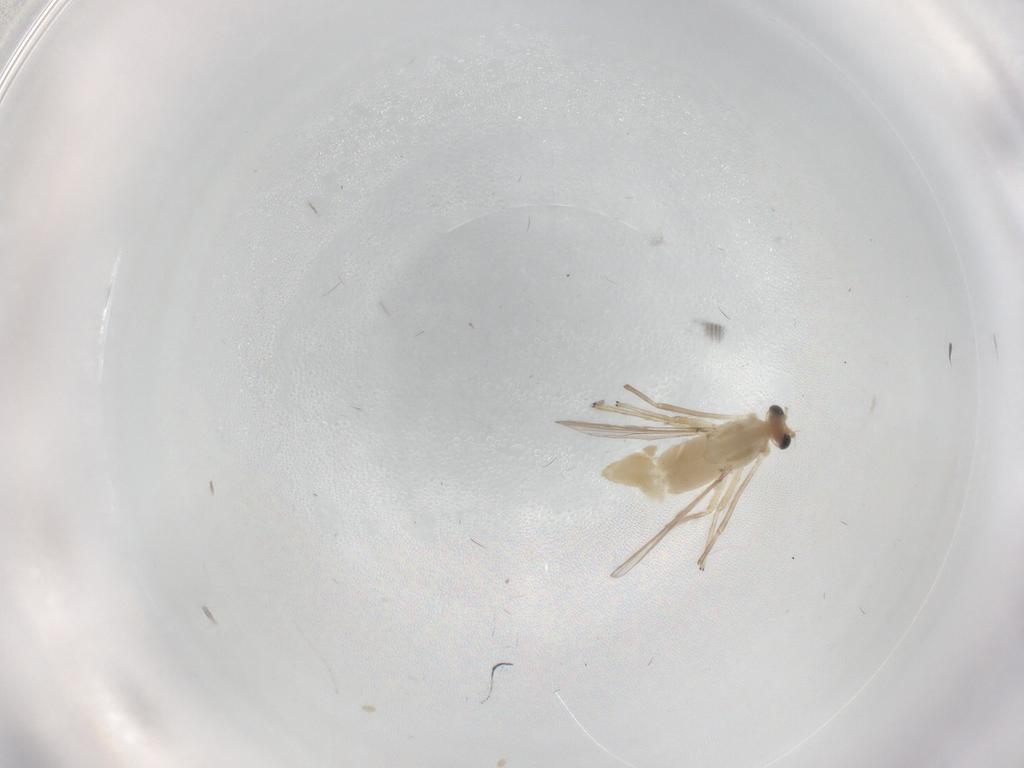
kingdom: Animalia
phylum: Arthropoda
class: Insecta
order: Diptera
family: Chironomidae
